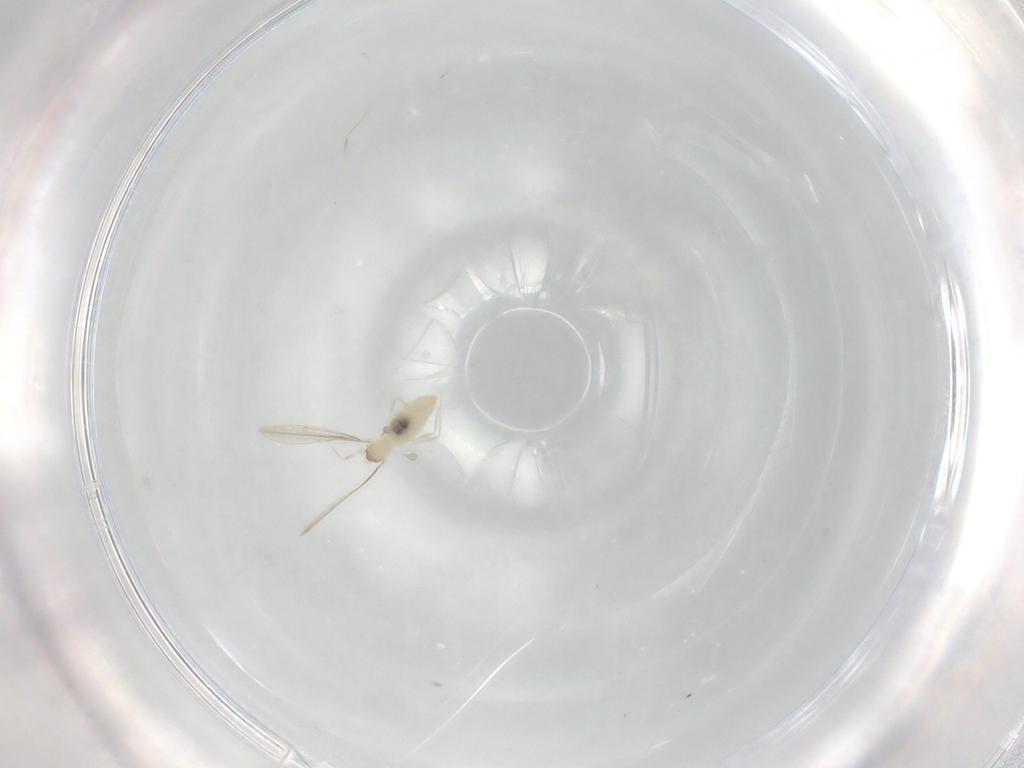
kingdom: Animalia
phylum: Arthropoda
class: Insecta
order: Diptera
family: Cecidomyiidae
